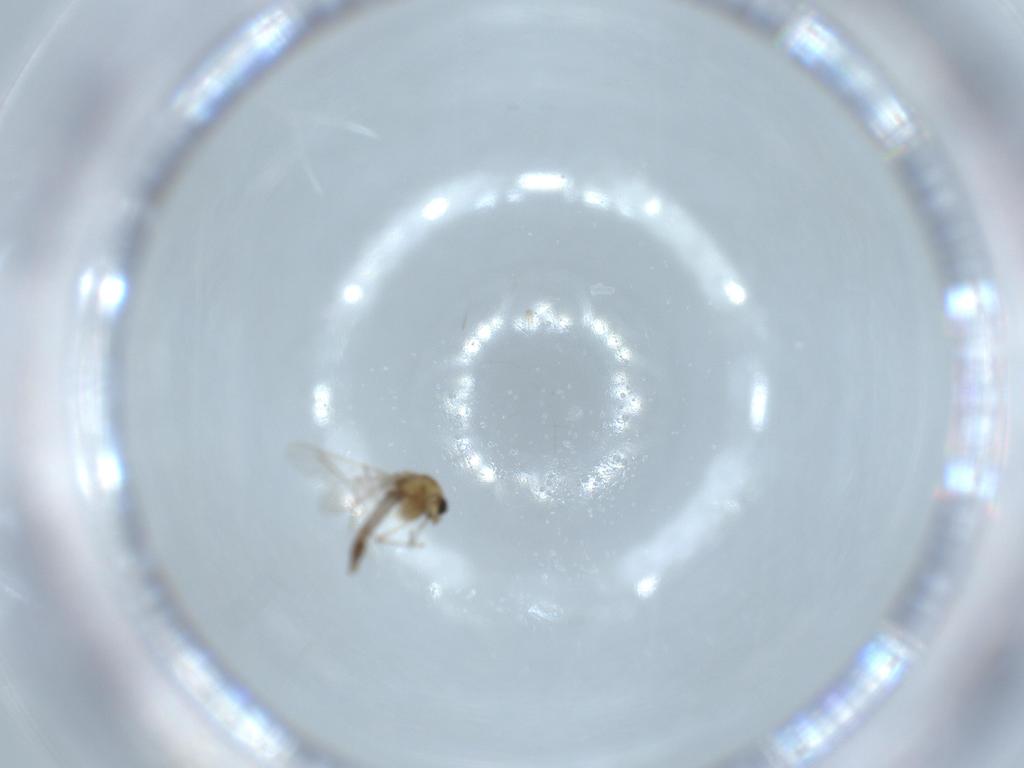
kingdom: Animalia
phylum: Arthropoda
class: Insecta
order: Diptera
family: Chironomidae
